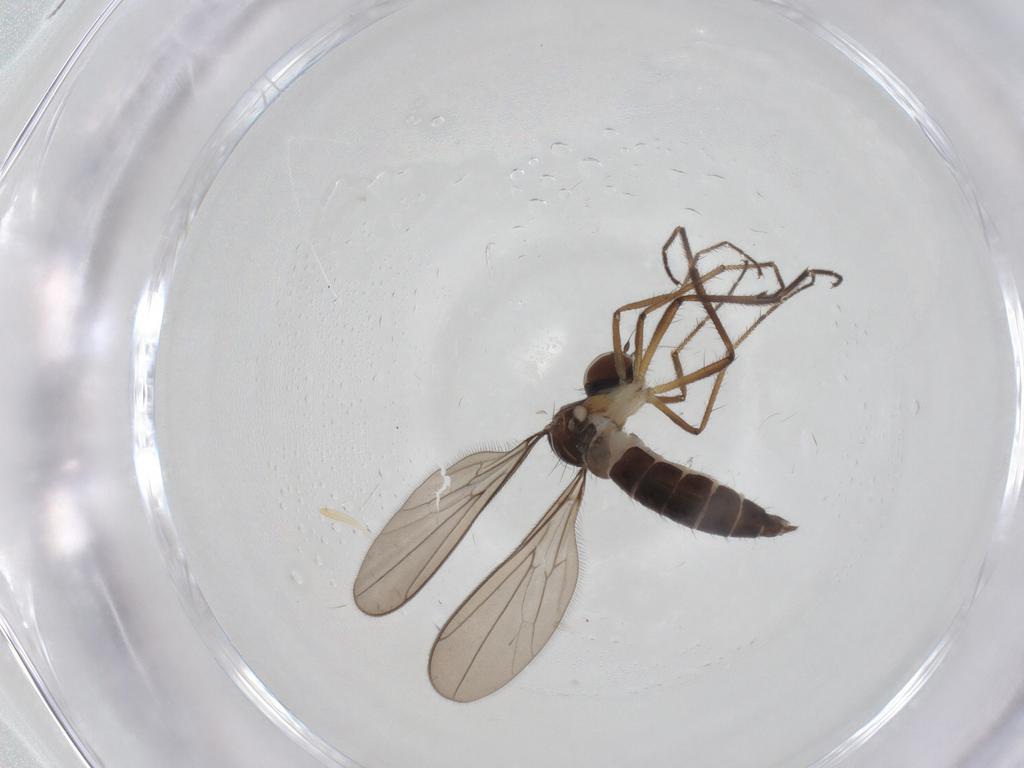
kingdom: Animalia
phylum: Arthropoda
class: Insecta
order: Diptera
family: Hybotidae
